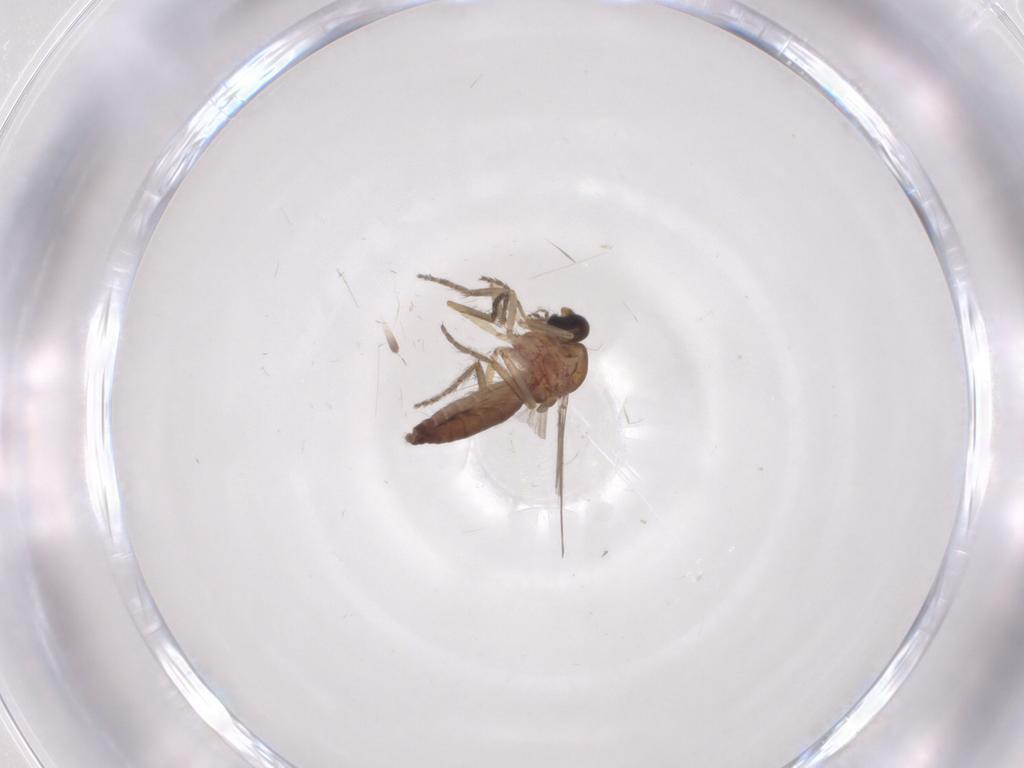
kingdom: Animalia
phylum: Arthropoda
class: Insecta
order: Diptera
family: Ceratopogonidae
